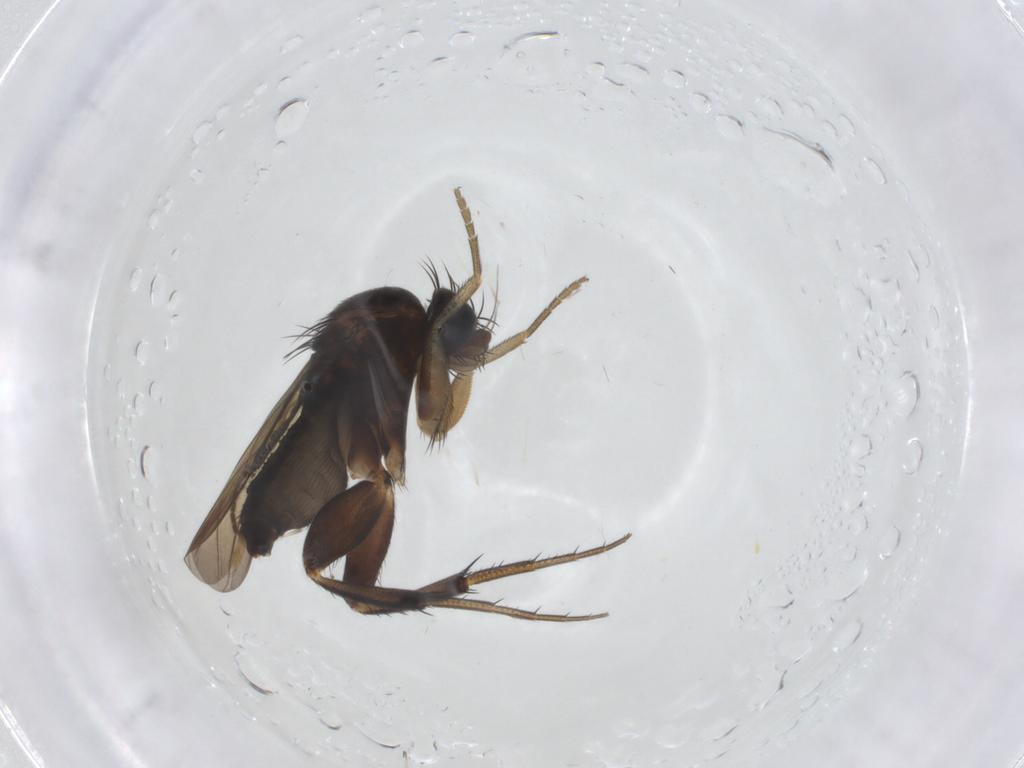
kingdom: Animalia
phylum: Arthropoda
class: Insecta
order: Diptera
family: Phoridae
